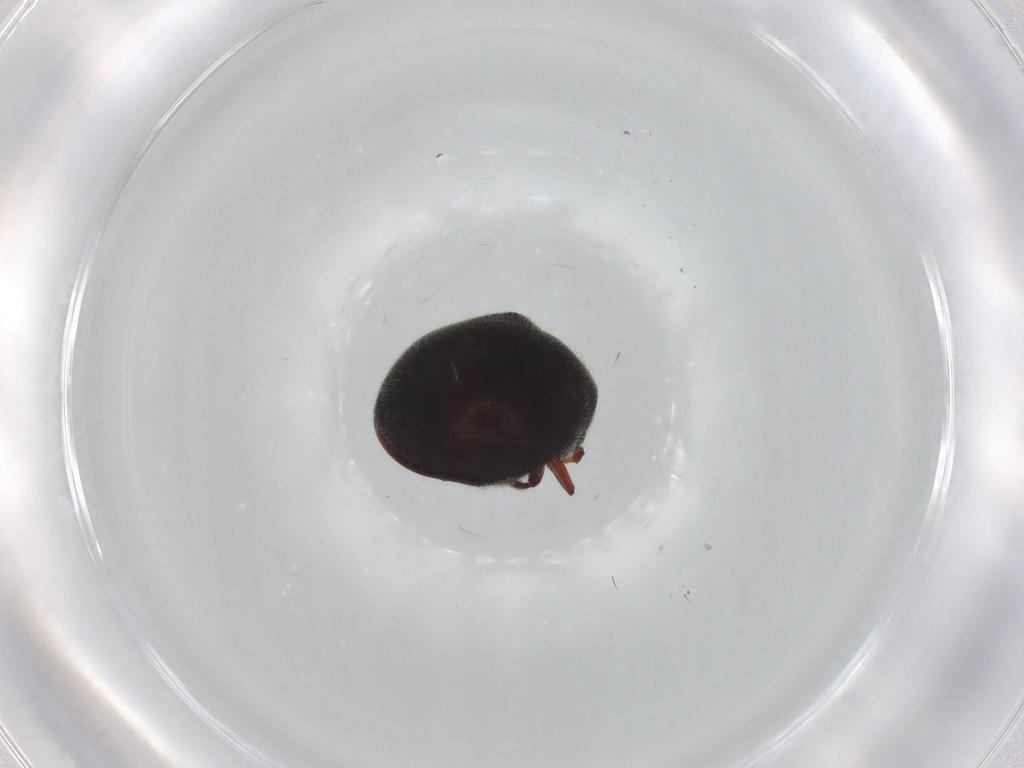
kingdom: Animalia
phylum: Arthropoda
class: Insecta
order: Coleoptera
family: Ptinidae
